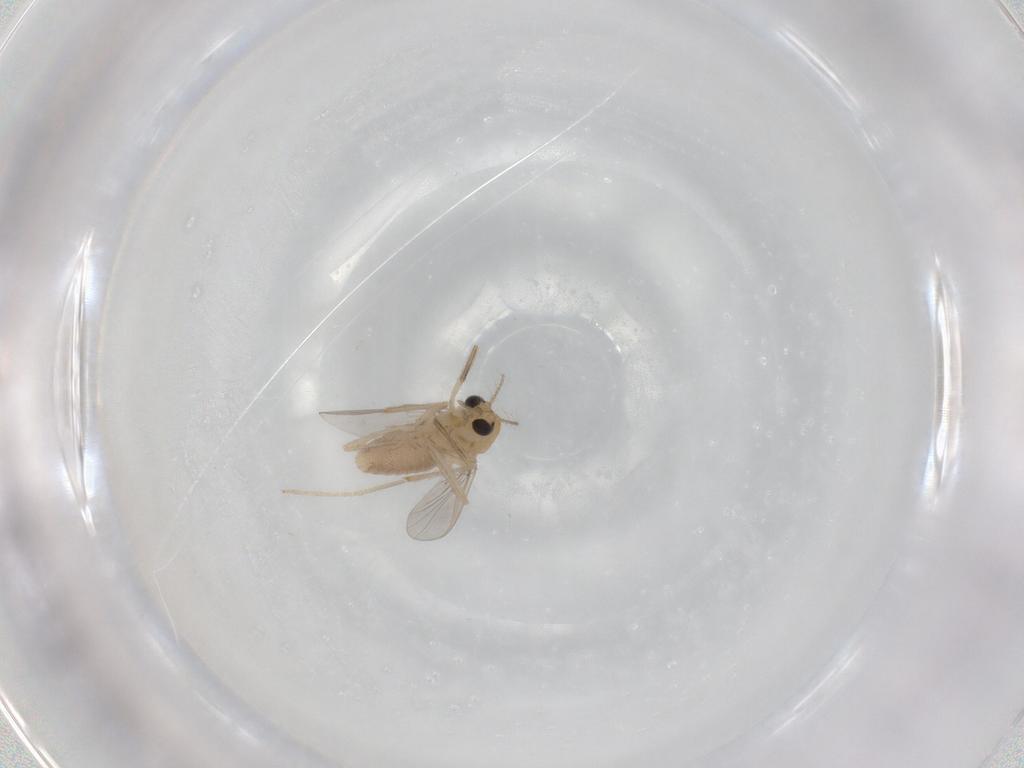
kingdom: Animalia
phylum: Arthropoda
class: Insecta
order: Diptera
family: Chironomidae
